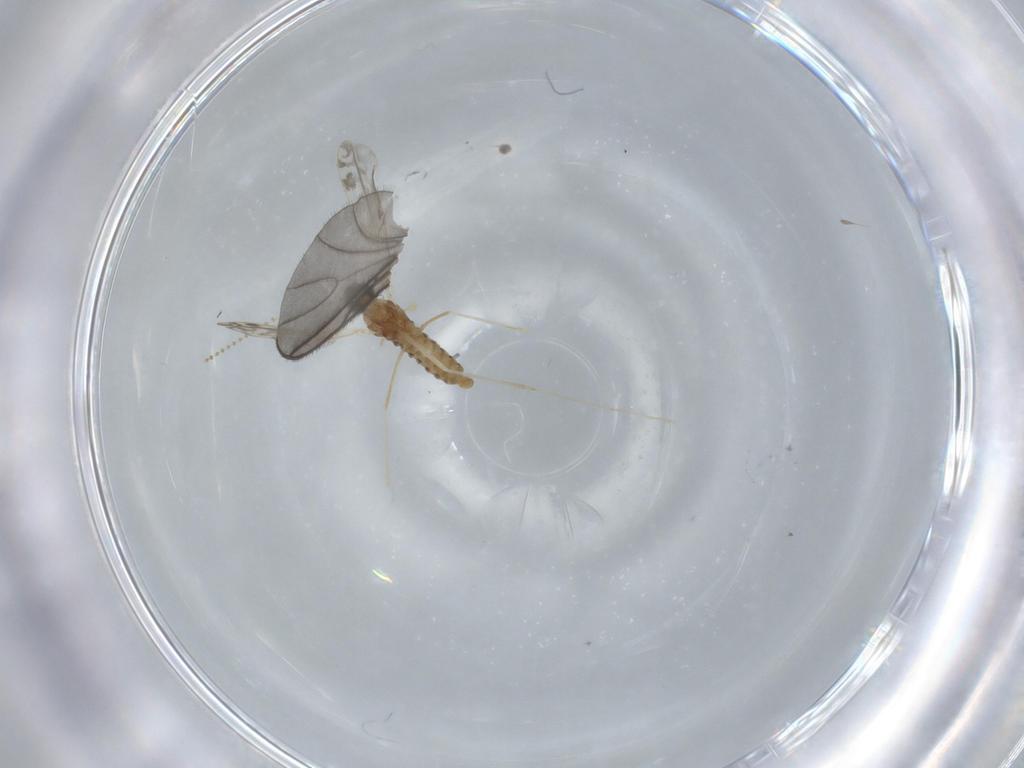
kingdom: Animalia
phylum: Arthropoda
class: Insecta
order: Diptera
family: Cecidomyiidae
